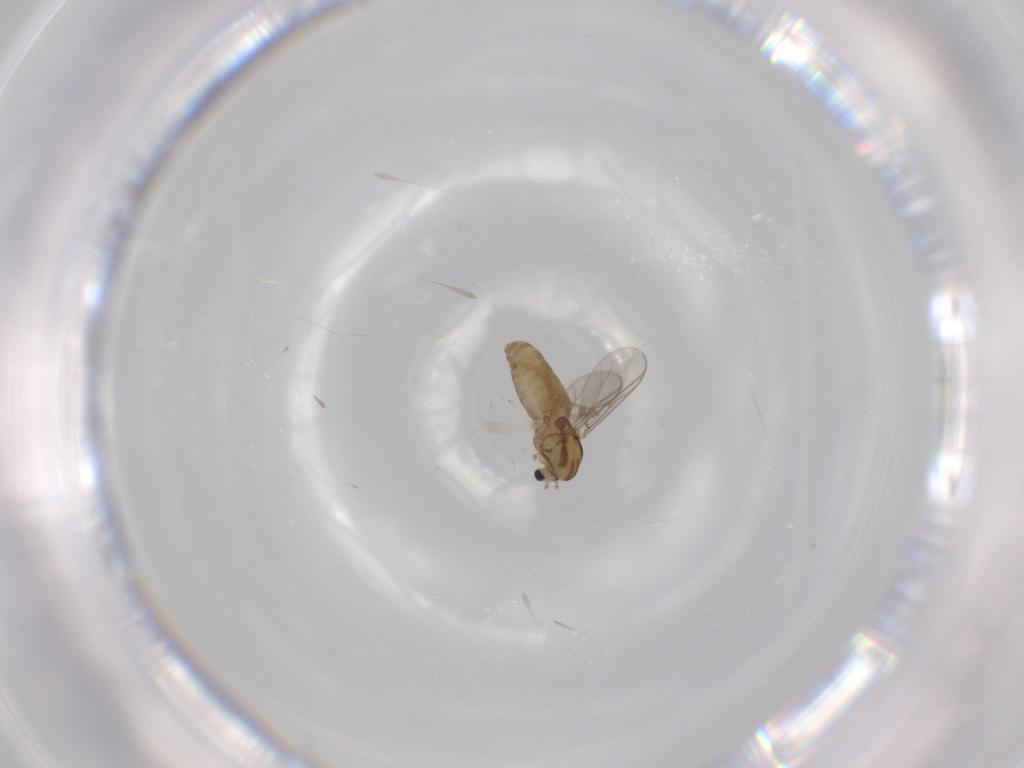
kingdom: Animalia
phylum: Arthropoda
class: Insecta
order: Diptera
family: Chironomidae
